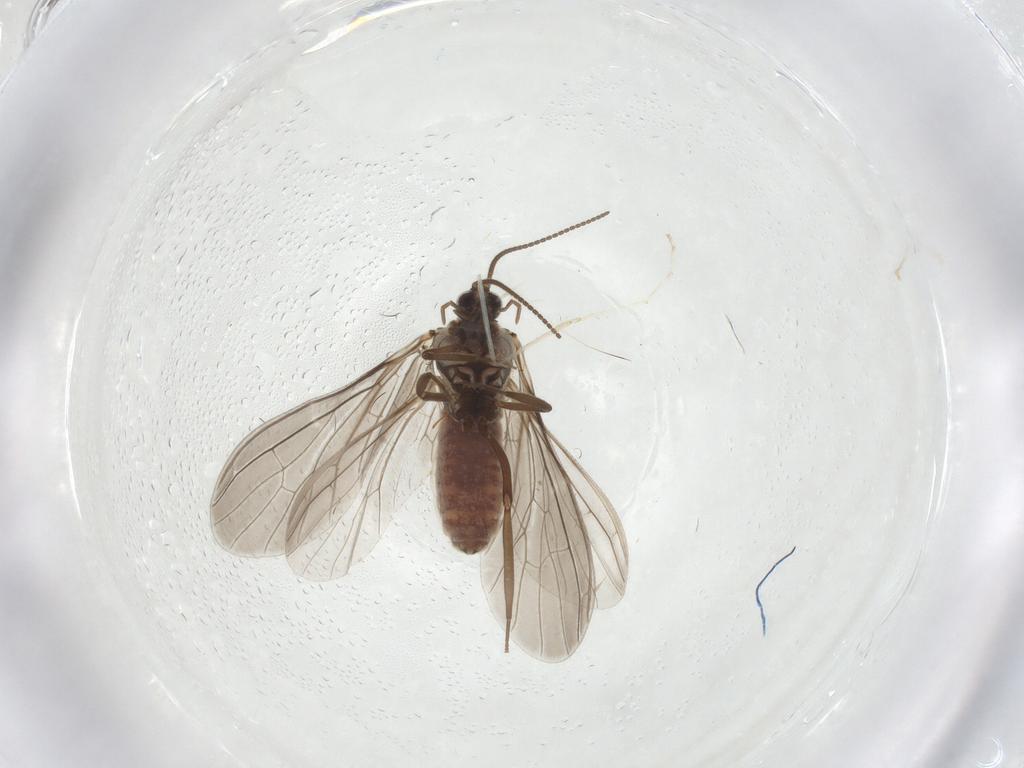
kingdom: Animalia
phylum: Arthropoda
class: Insecta
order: Neuroptera
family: Coniopterygidae
